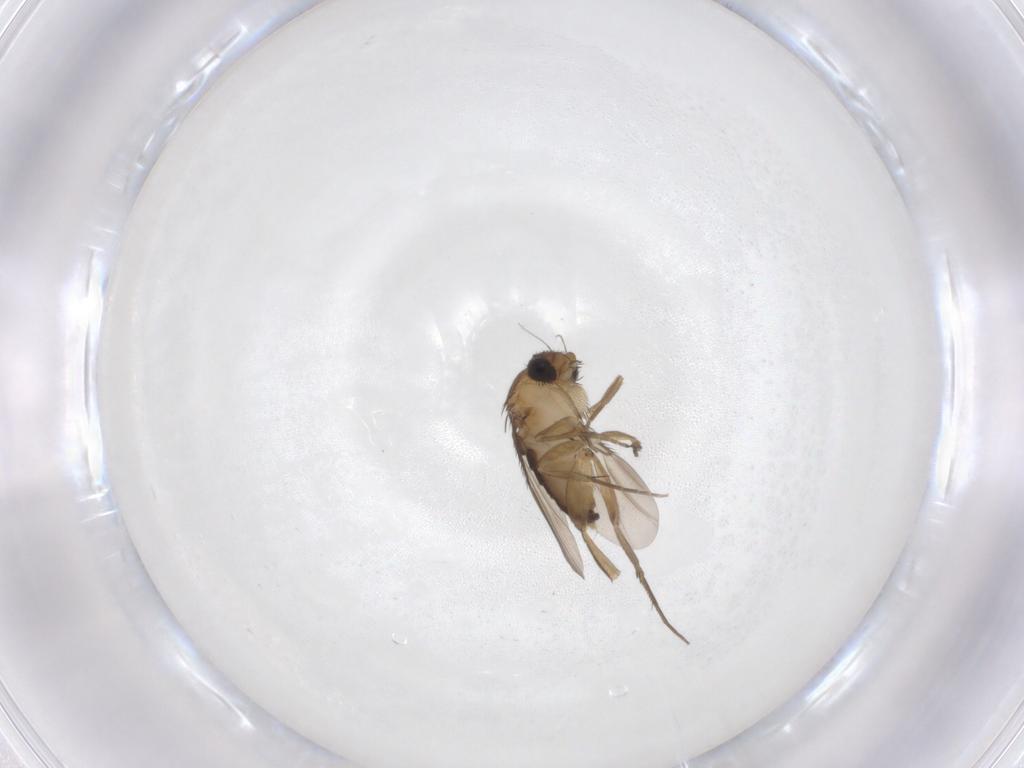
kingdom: Animalia
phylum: Arthropoda
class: Insecta
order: Diptera
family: Phoridae
